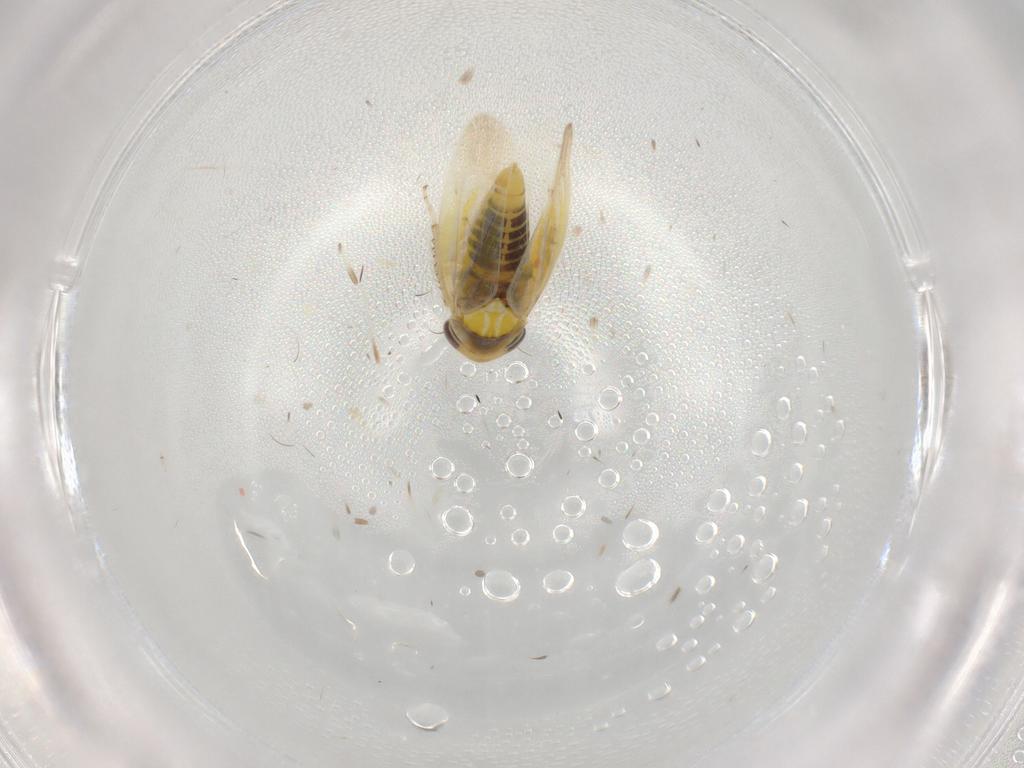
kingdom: Animalia
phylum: Arthropoda
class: Insecta
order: Hemiptera
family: Cicadellidae
